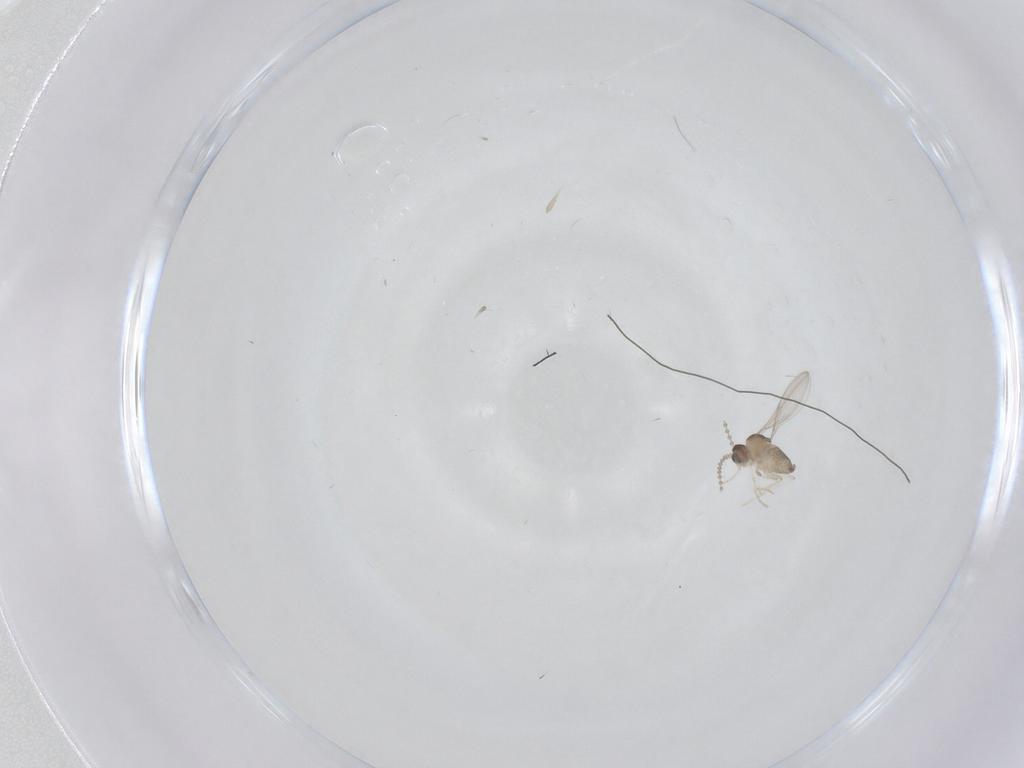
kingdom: Animalia
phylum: Arthropoda
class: Insecta
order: Diptera
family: Cecidomyiidae
